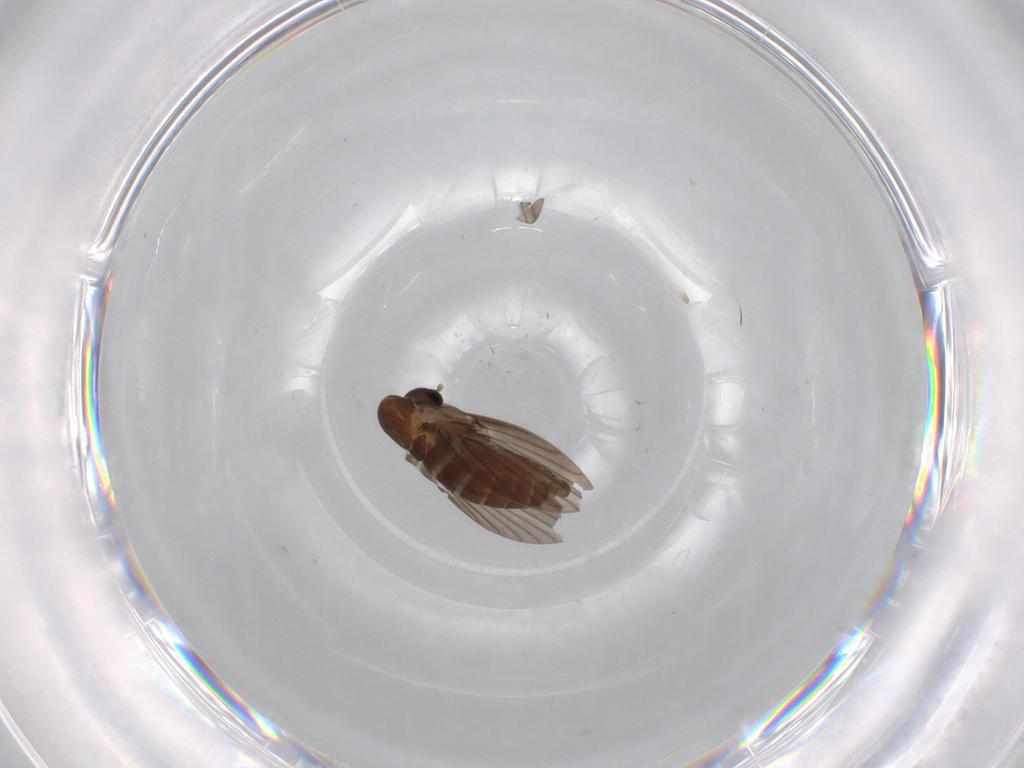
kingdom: Animalia
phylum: Arthropoda
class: Insecta
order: Diptera
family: Psychodidae
